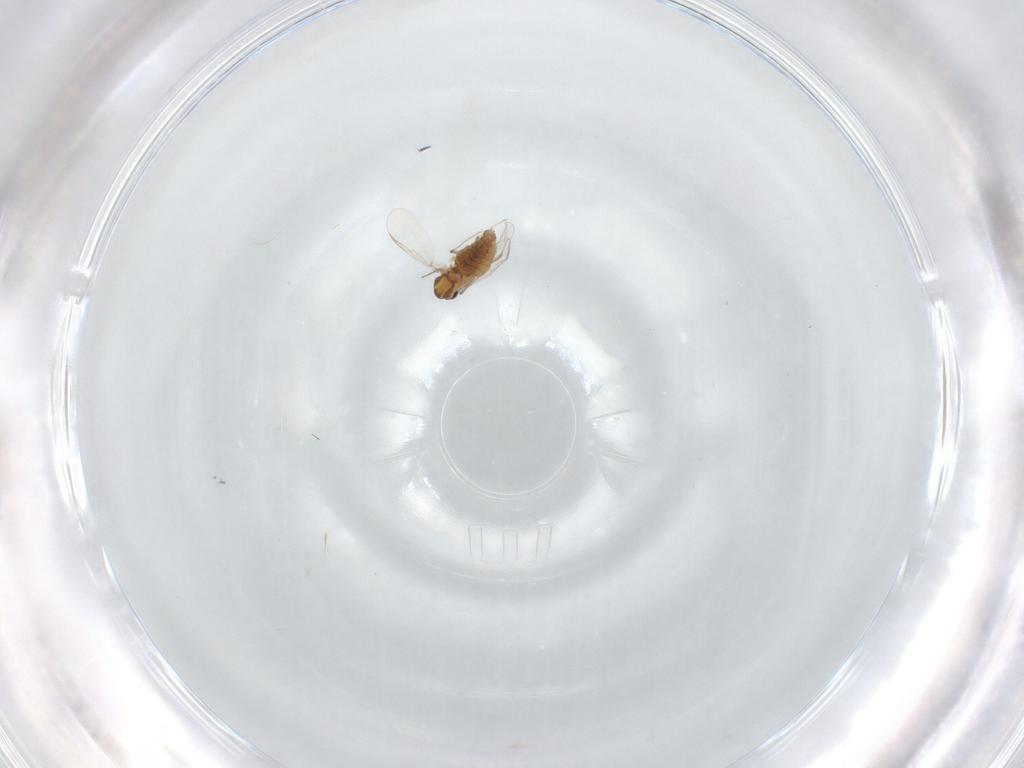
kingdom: Animalia
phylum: Arthropoda
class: Insecta
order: Diptera
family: Chironomidae
